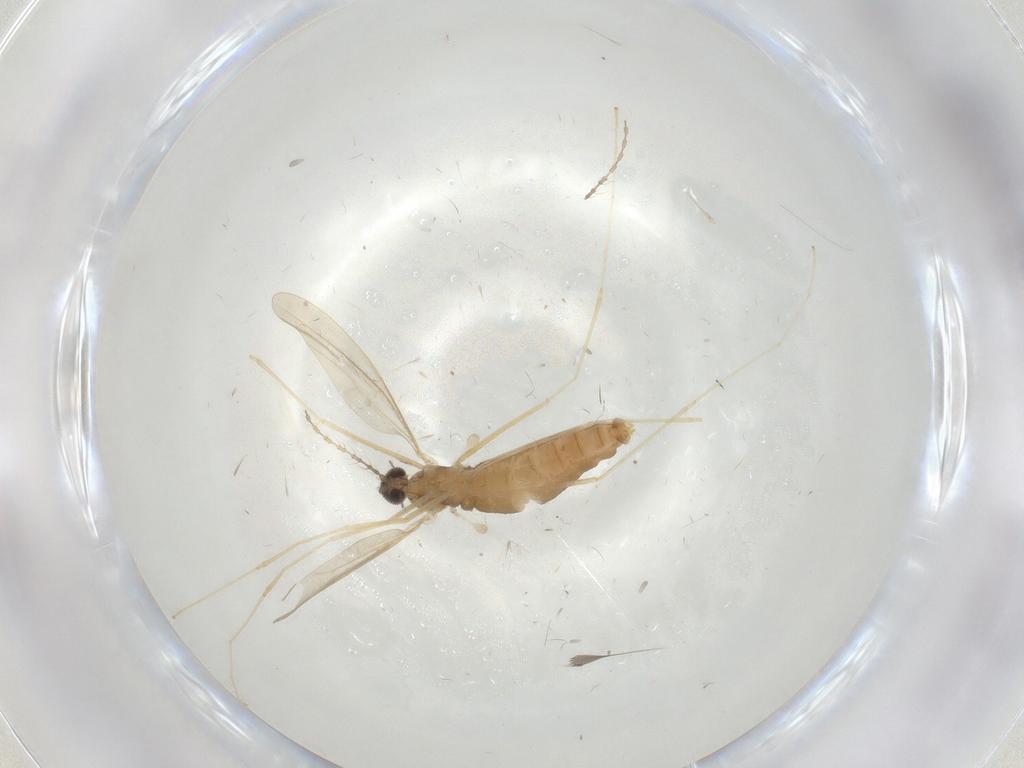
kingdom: Animalia
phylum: Arthropoda
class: Insecta
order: Diptera
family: Cecidomyiidae
